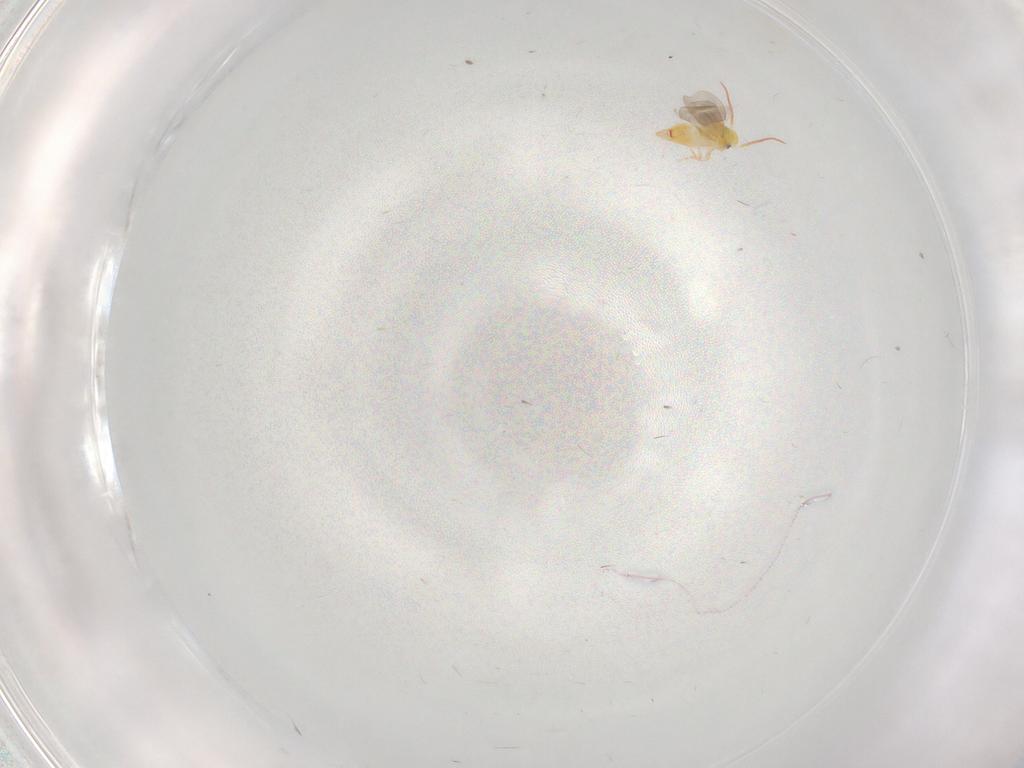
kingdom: Animalia
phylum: Arthropoda
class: Insecta
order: Hemiptera
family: Aleyrodidae
